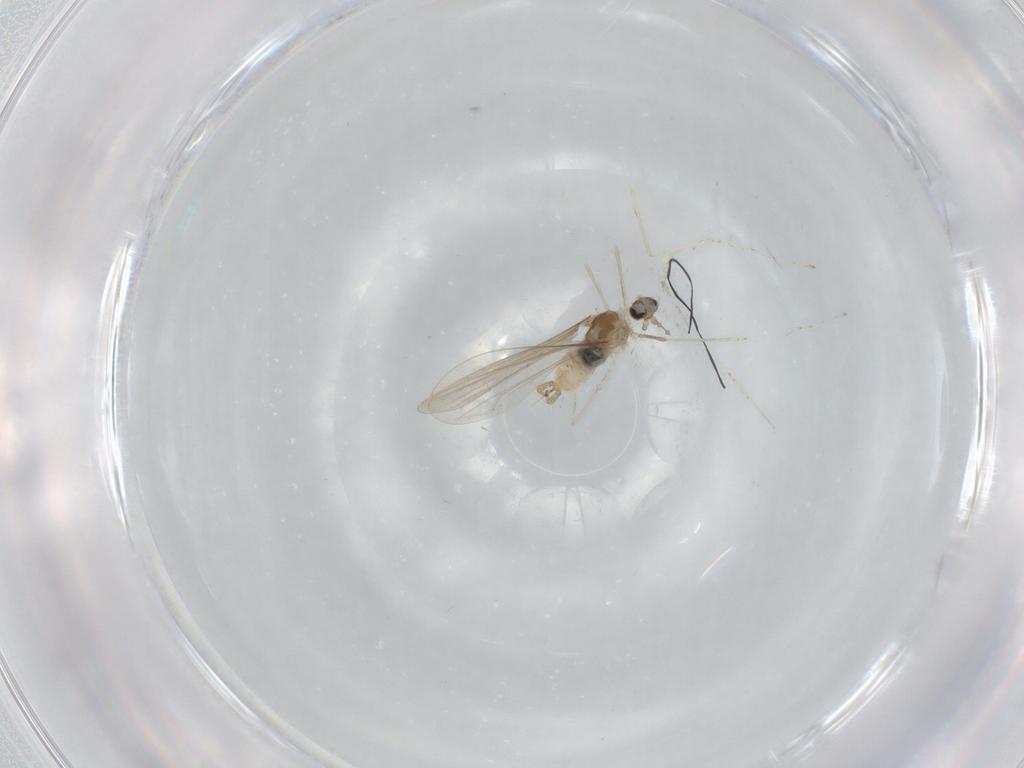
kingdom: Animalia
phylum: Arthropoda
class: Insecta
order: Diptera
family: Cecidomyiidae
